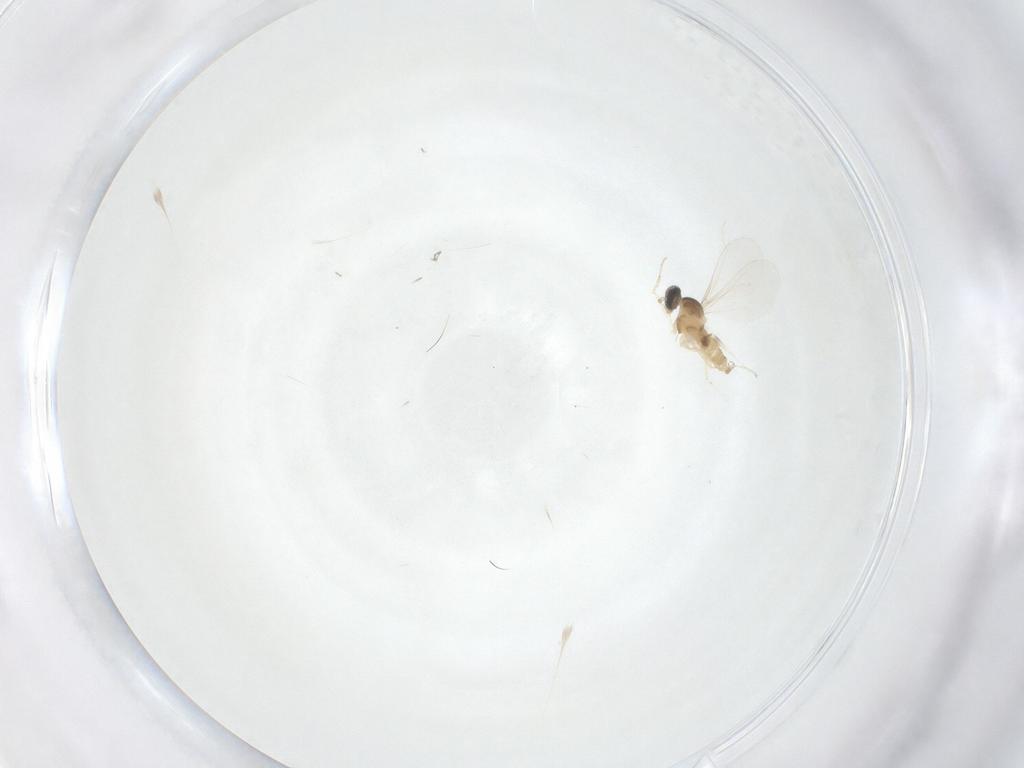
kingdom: Animalia
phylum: Arthropoda
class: Insecta
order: Diptera
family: Cecidomyiidae
